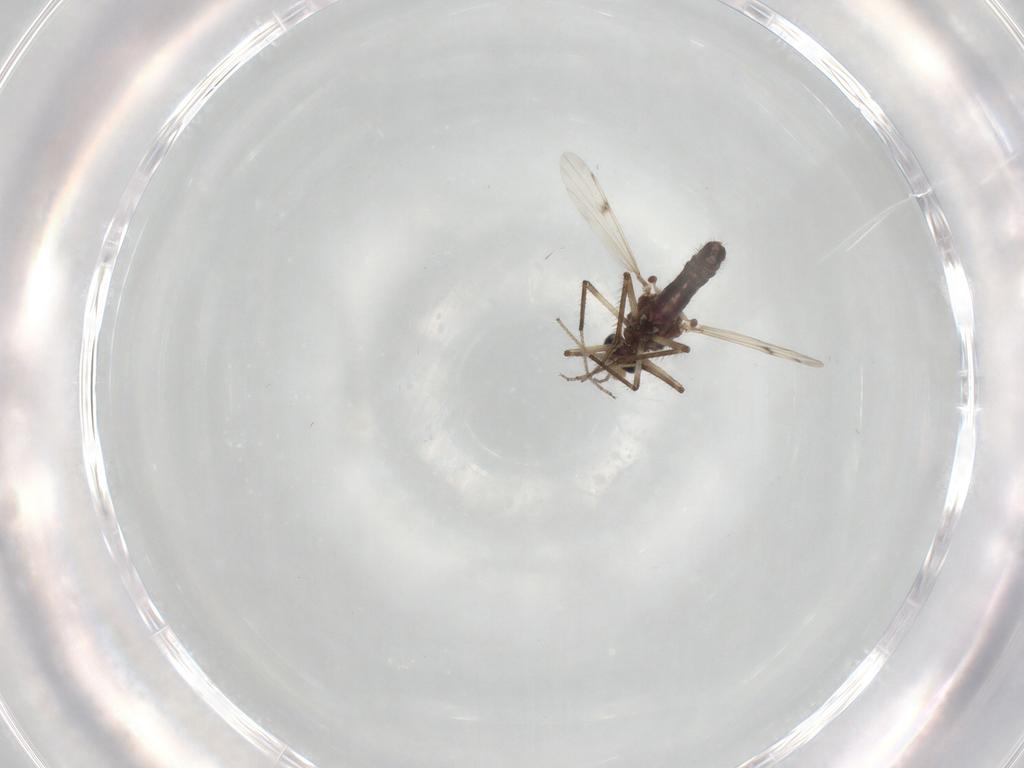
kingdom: Animalia
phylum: Arthropoda
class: Insecta
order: Diptera
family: Ceratopogonidae
